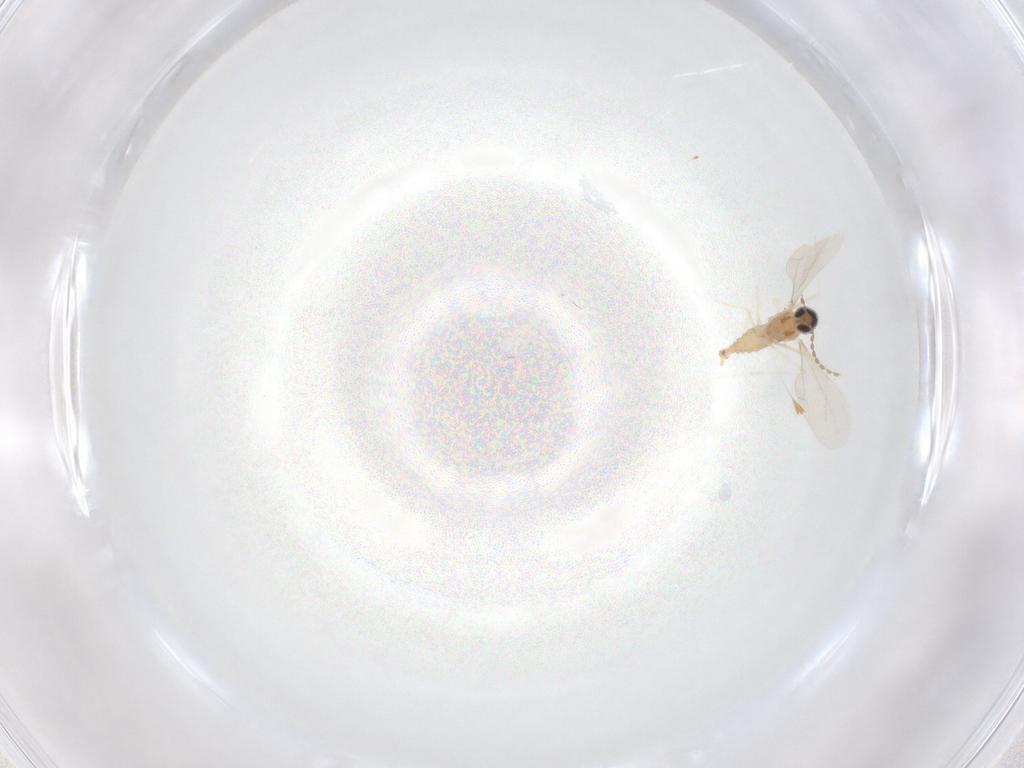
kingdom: Animalia
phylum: Arthropoda
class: Insecta
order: Diptera
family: Cecidomyiidae
